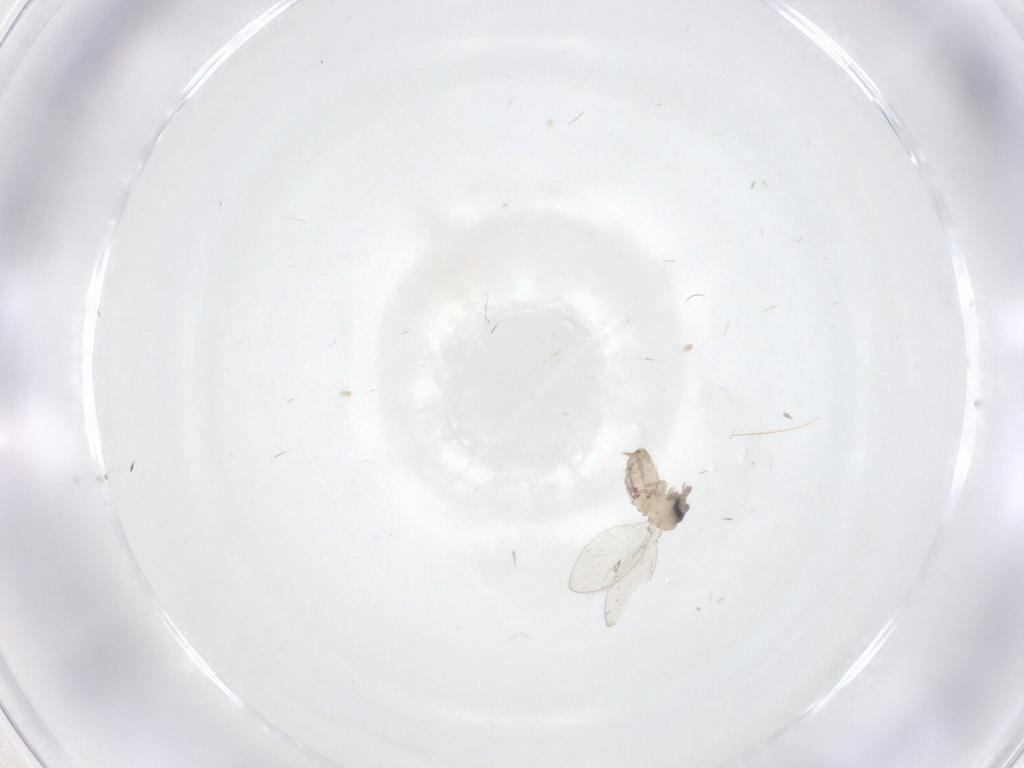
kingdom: Animalia
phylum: Arthropoda
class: Insecta
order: Diptera
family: Psychodidae
